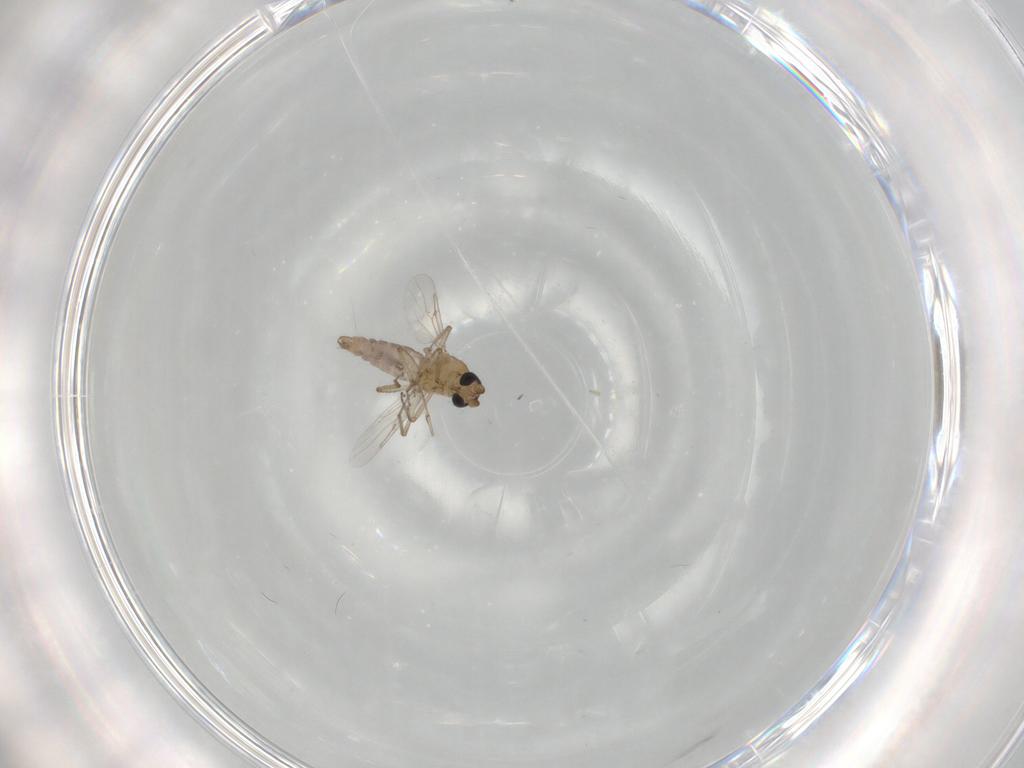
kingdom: Animalia
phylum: Arthropoda
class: Insecta
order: Diptera
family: Ceratopogonidae
